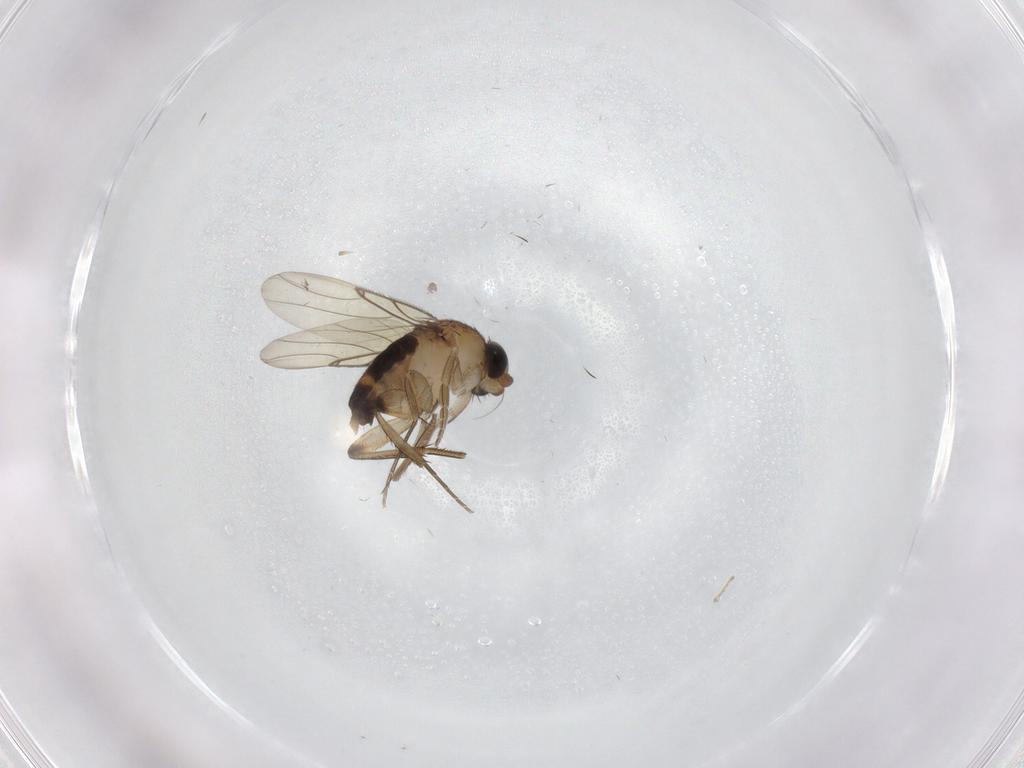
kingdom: Animalia
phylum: Arthropoda
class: Insecta
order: Diptera
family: Phoridae
